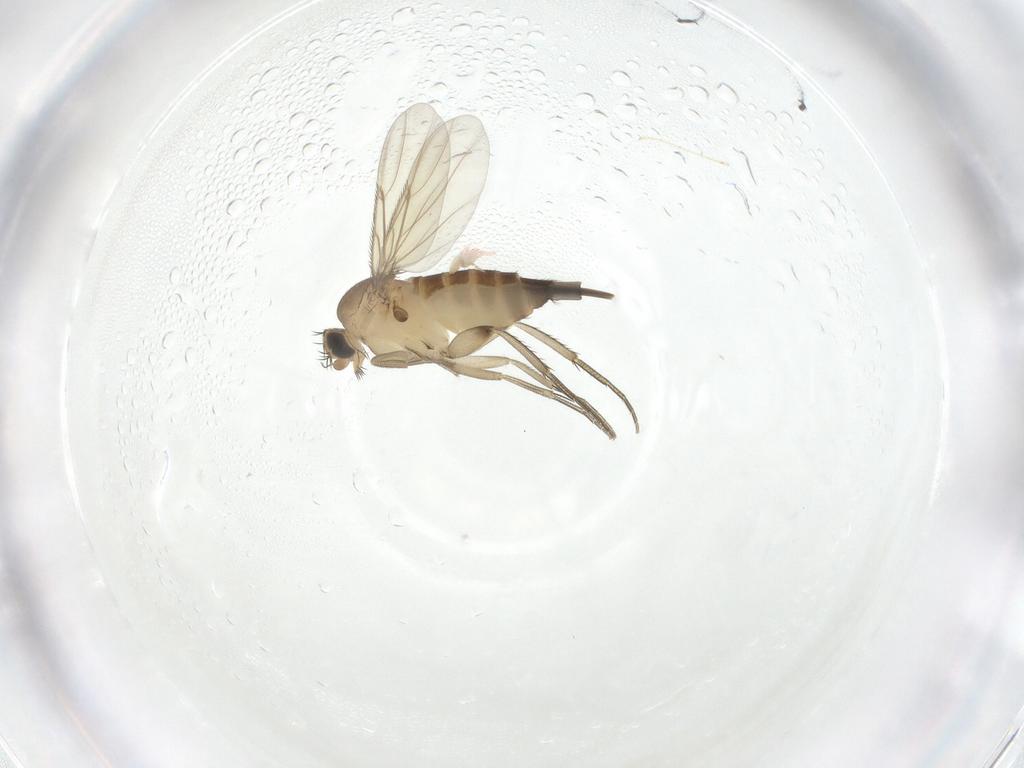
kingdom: Animalia
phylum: Arthropoda
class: Insecta
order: Diptera
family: Phoridae
